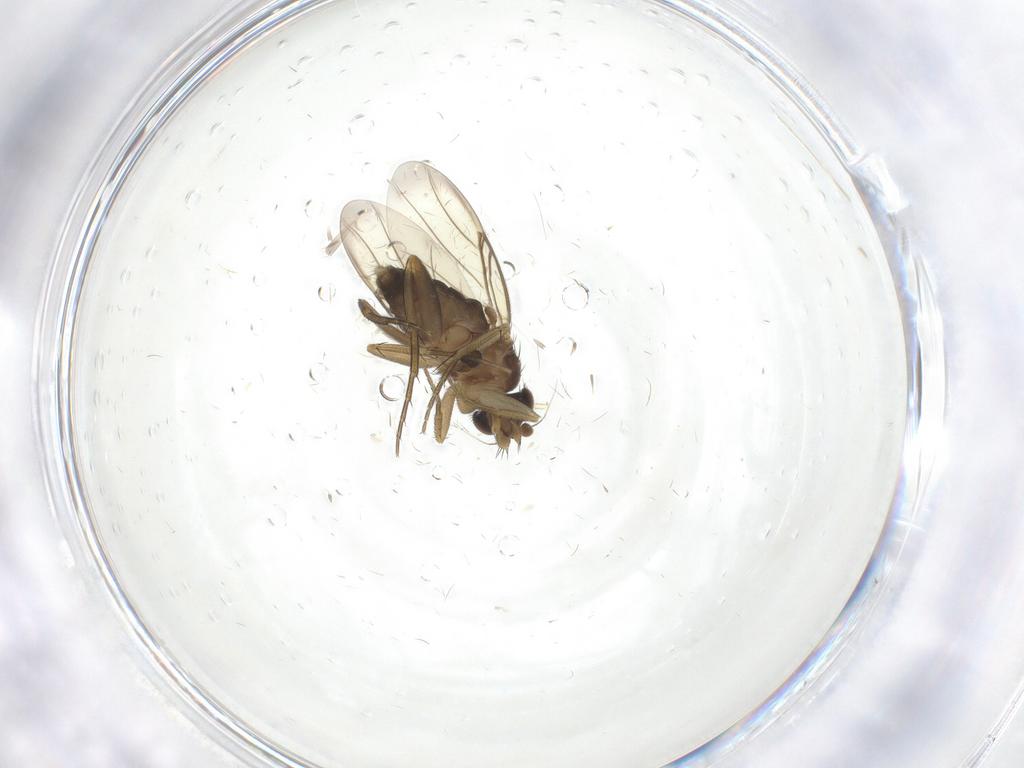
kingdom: Animalia
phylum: Arthropoda
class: Insecta
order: Diptera
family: Phoridae
